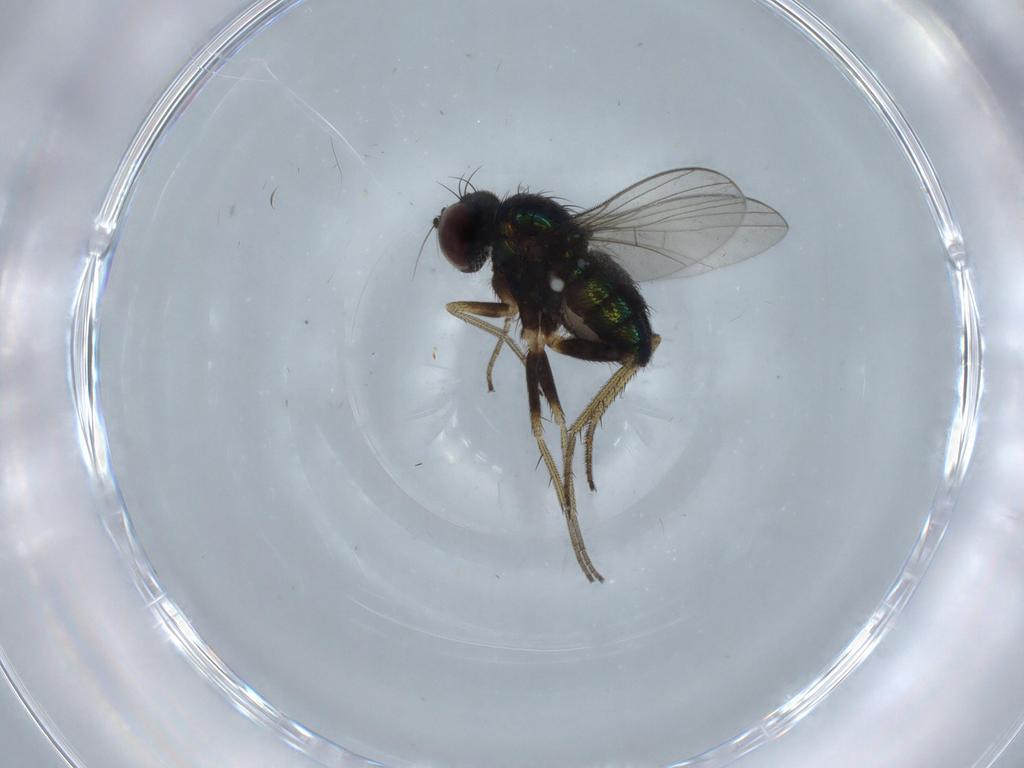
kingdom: Animalia
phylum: Arthropoda
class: Insecta
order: Diptera
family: Dolichopodidae
